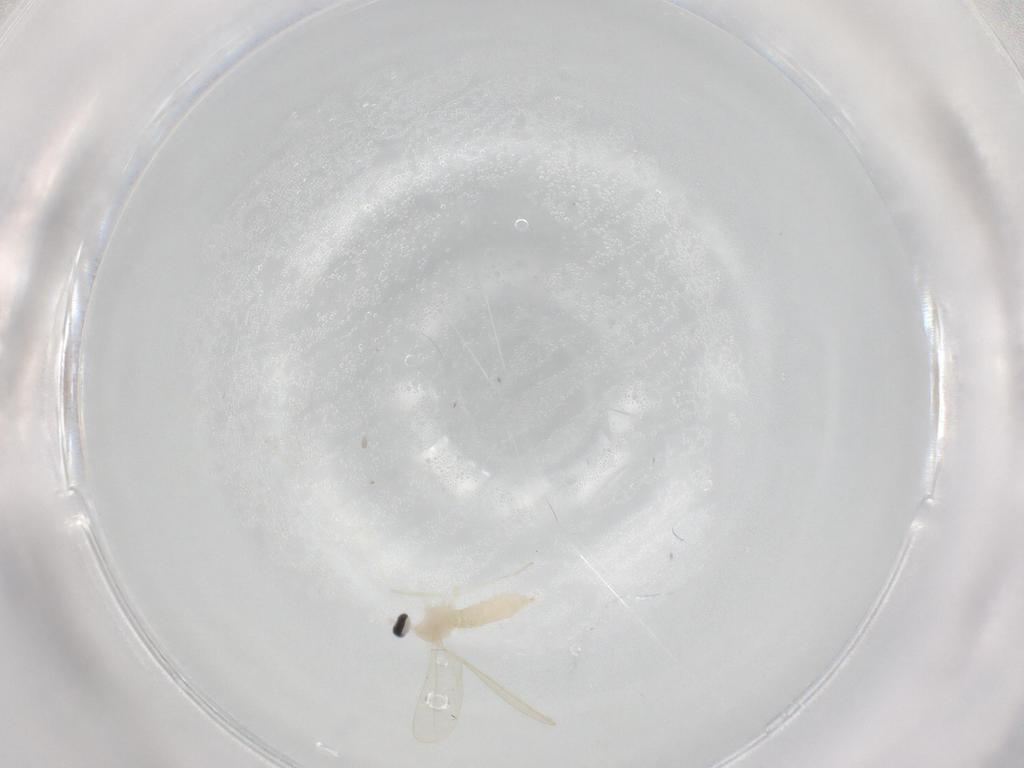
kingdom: Animalia
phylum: Arthropoda
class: Insecta
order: Diptera
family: Cecidomyiidae
